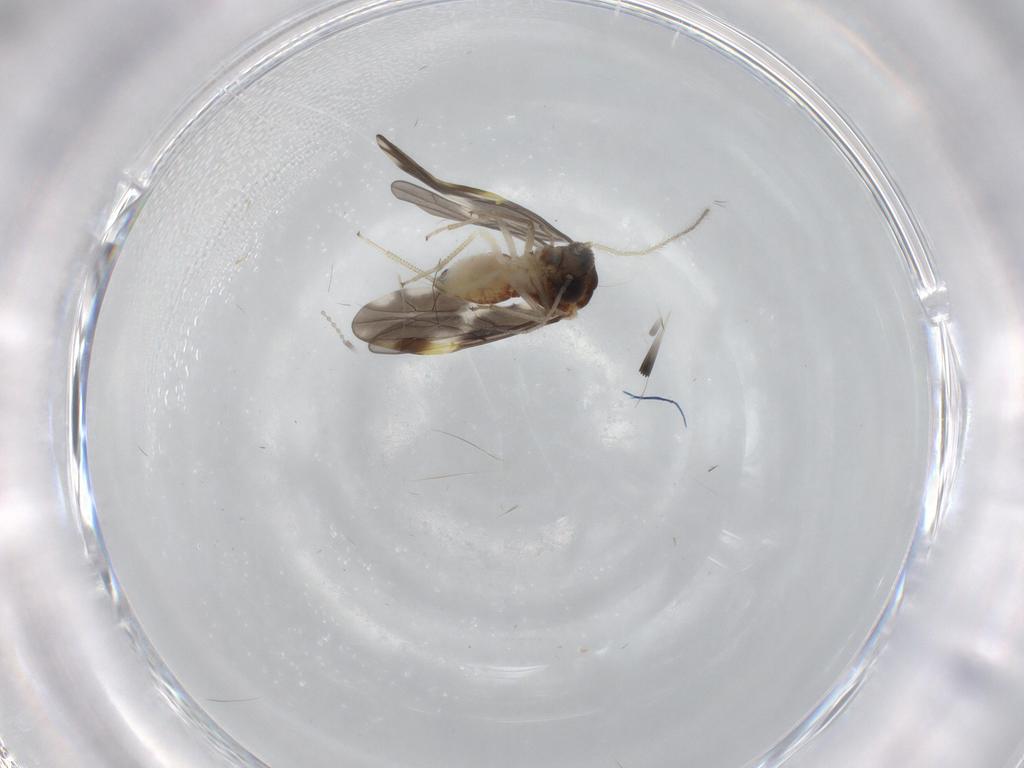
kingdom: Animalia
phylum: Arthropoda
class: Insecta
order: Psocodea
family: Peripsocidae
